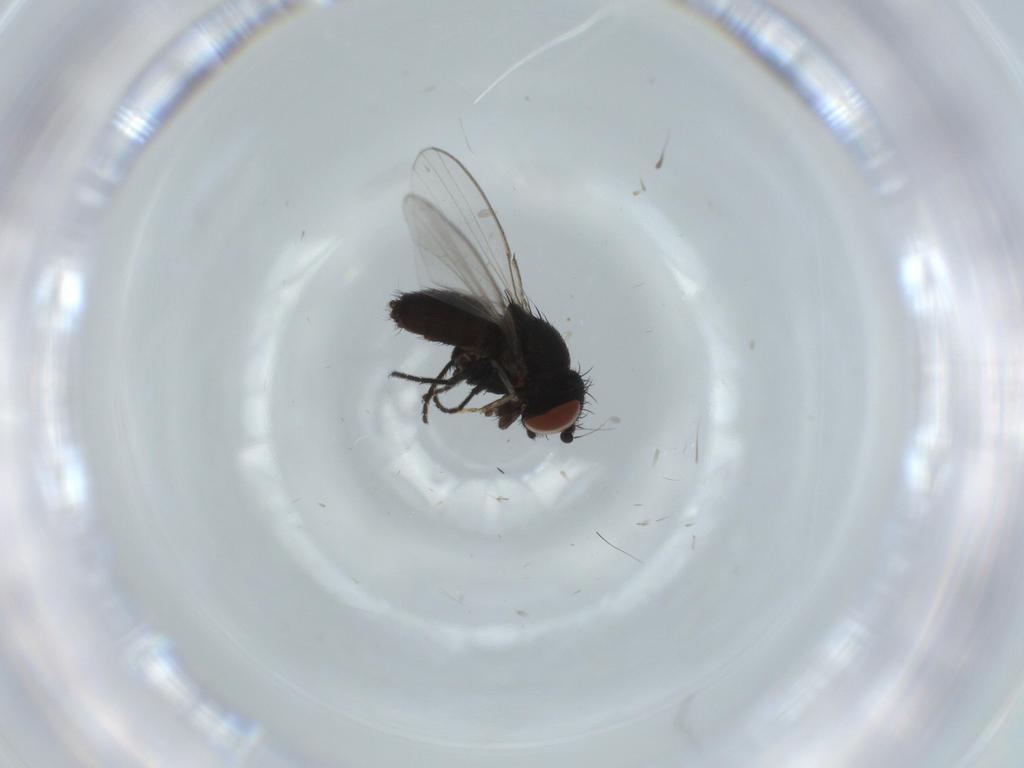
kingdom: Animalia
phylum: Arthropoda
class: Insecta
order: Diptera
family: Milichiidae
